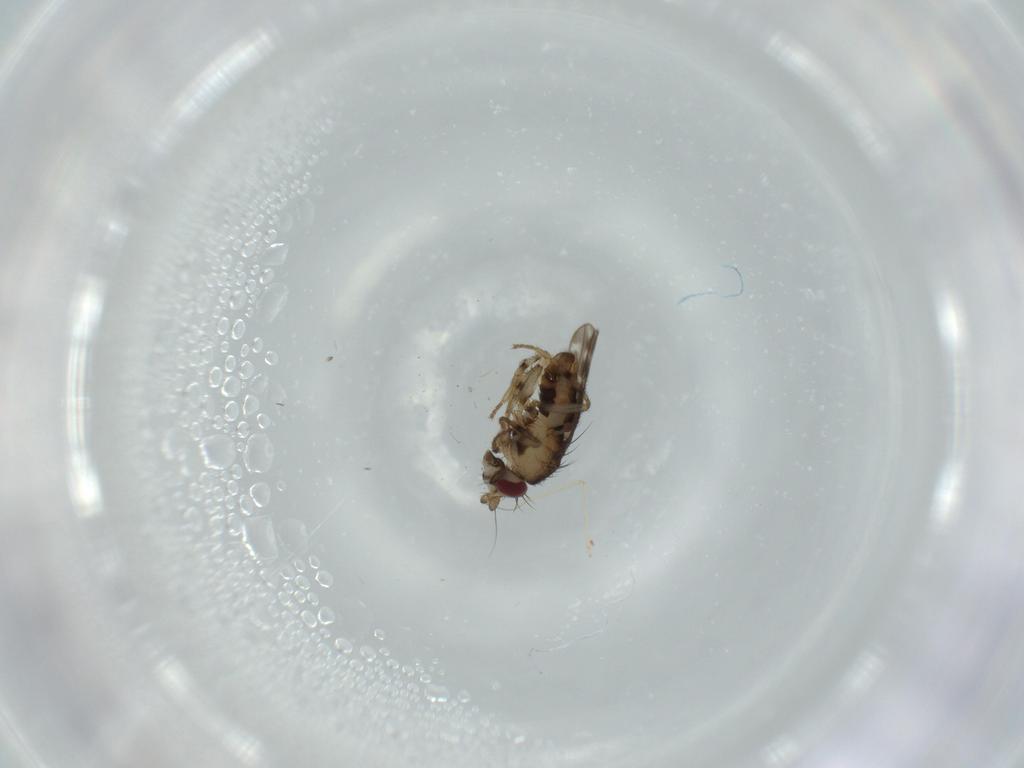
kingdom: Animalia
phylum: Arthropoda
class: Insecta
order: Diptera
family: Sphaeroceridae
